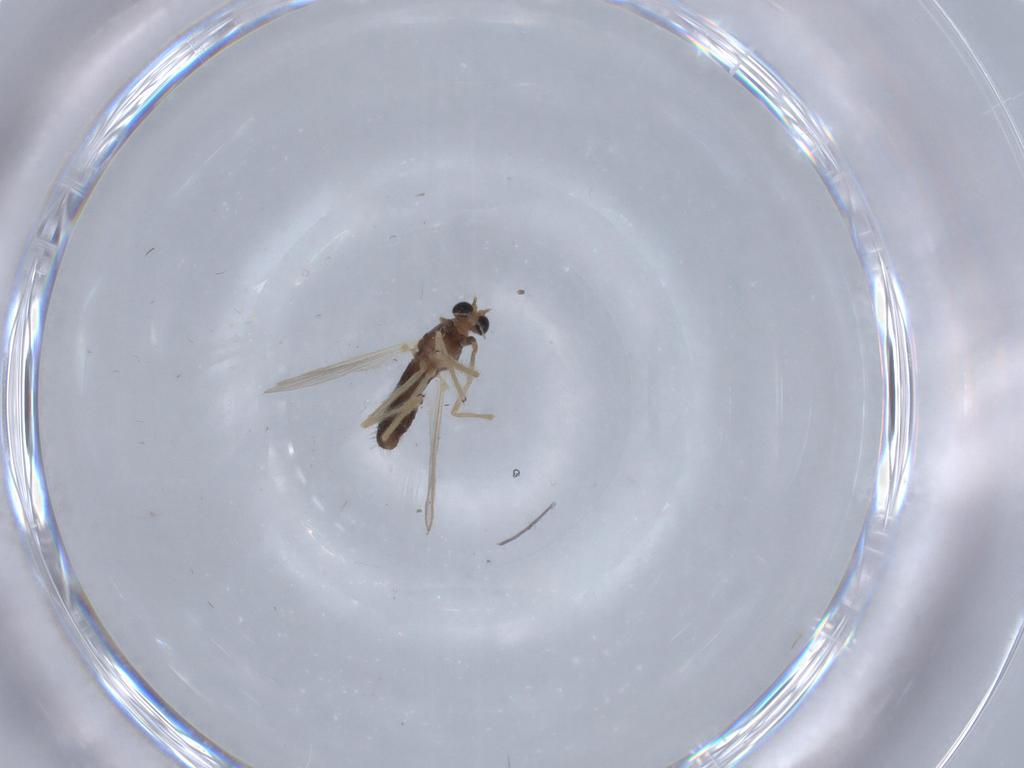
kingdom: Animalia
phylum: Arthropoda
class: Insecta
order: Diptera
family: Chironomidae
